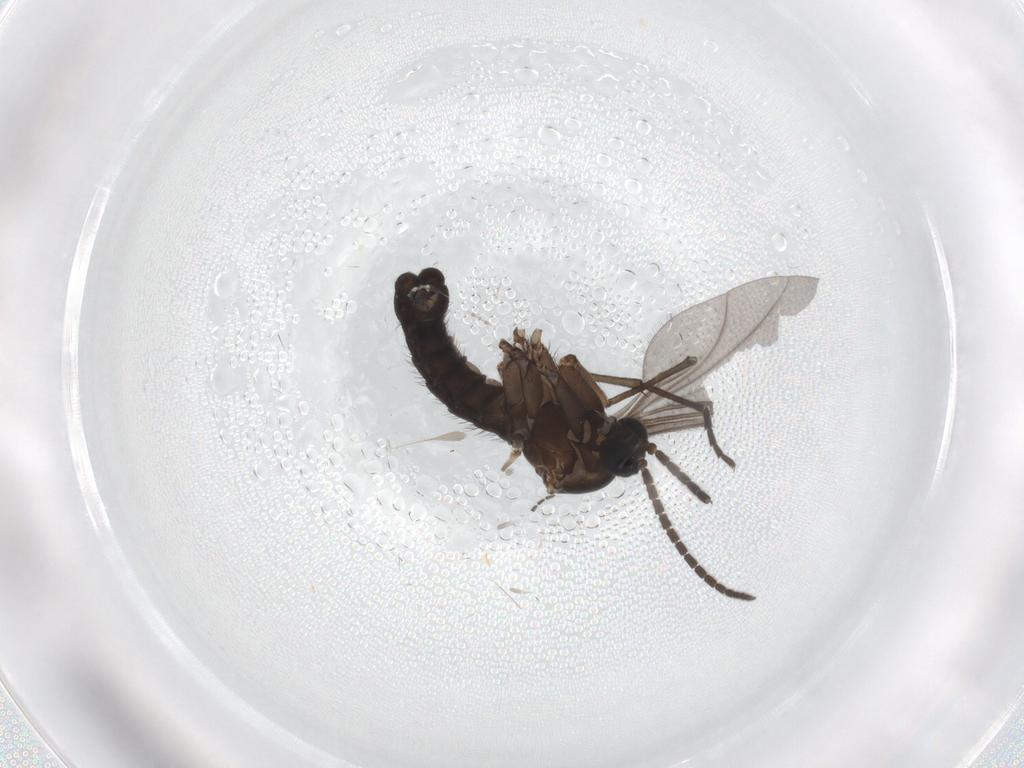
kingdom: Animalia
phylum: Arthropoda
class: Insecta
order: Diptera
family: Sciaridae
